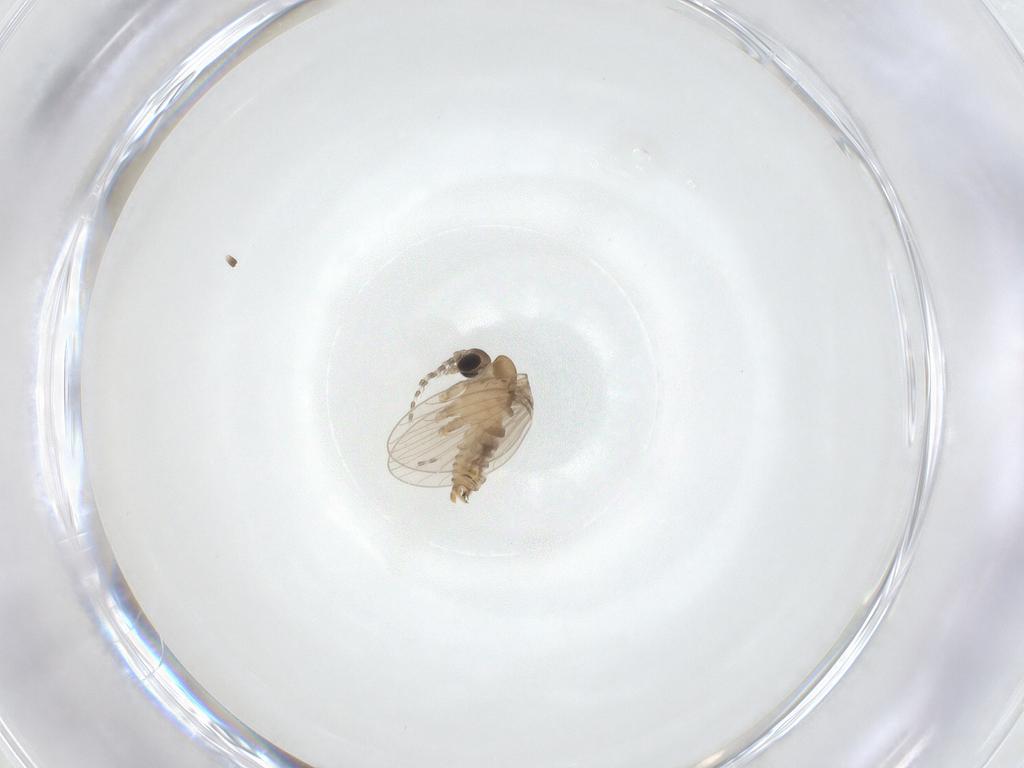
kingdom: Animalia
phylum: Arthropoda
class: Insecta
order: Diptera
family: Psychodidae
